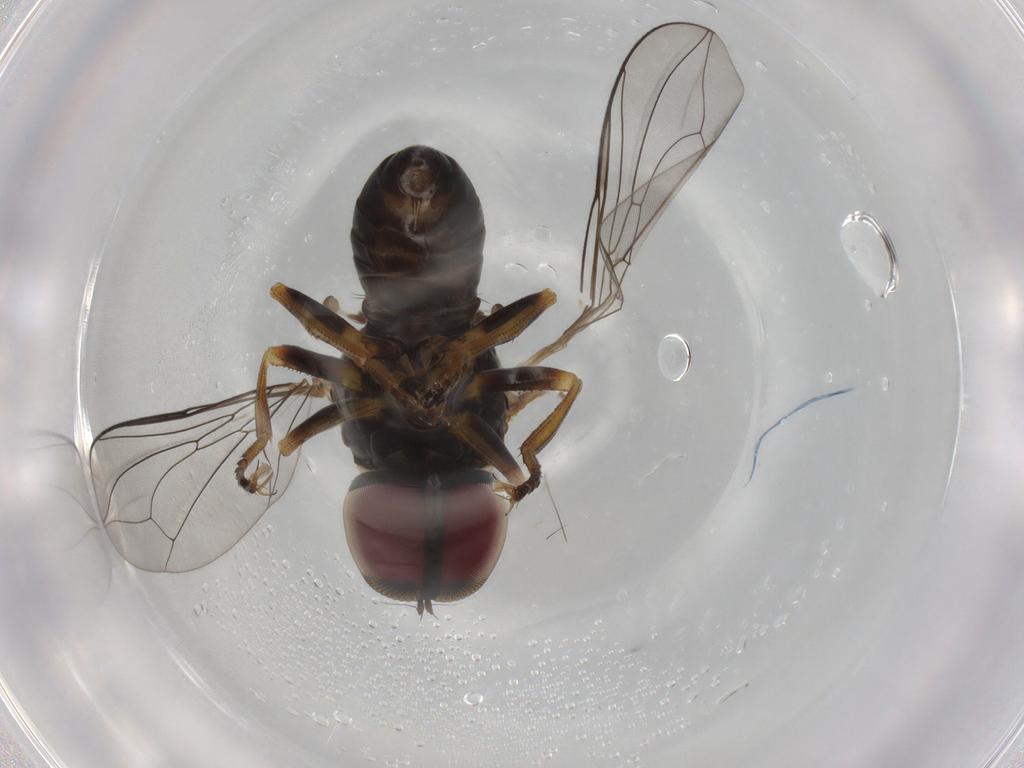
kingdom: Animalia
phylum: Arthropoda
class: Insecta
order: Diptera
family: Pipunculidae
